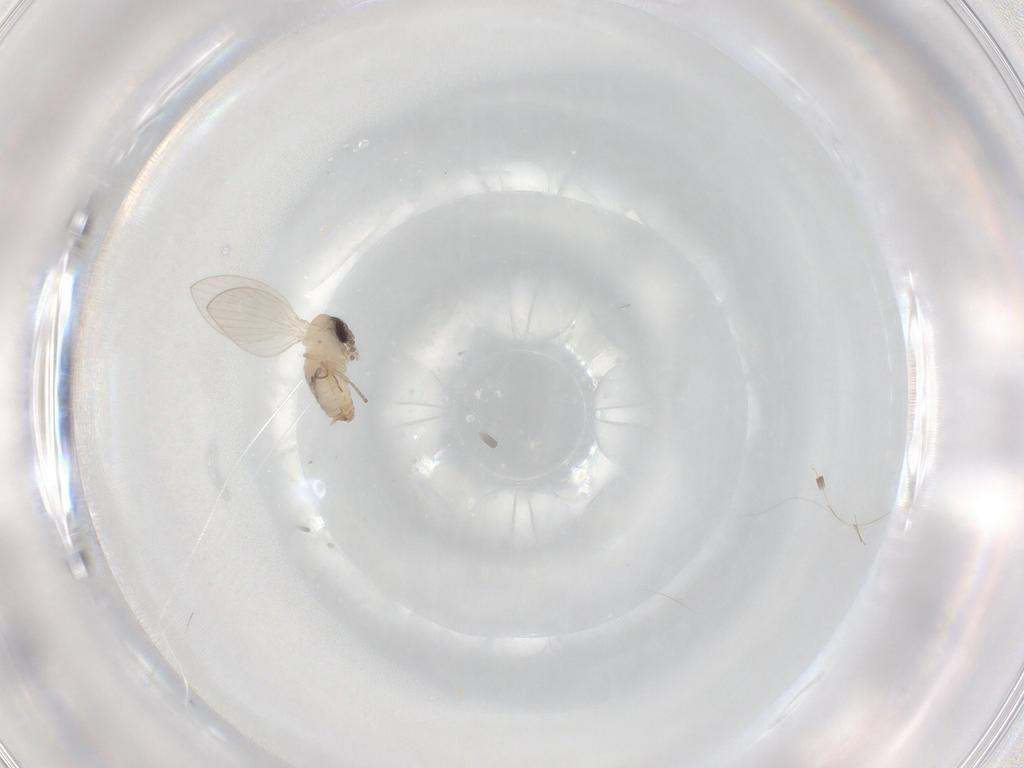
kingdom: Animalia
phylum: Arthropoda
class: Insecta
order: Diptera
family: Psychodidae
